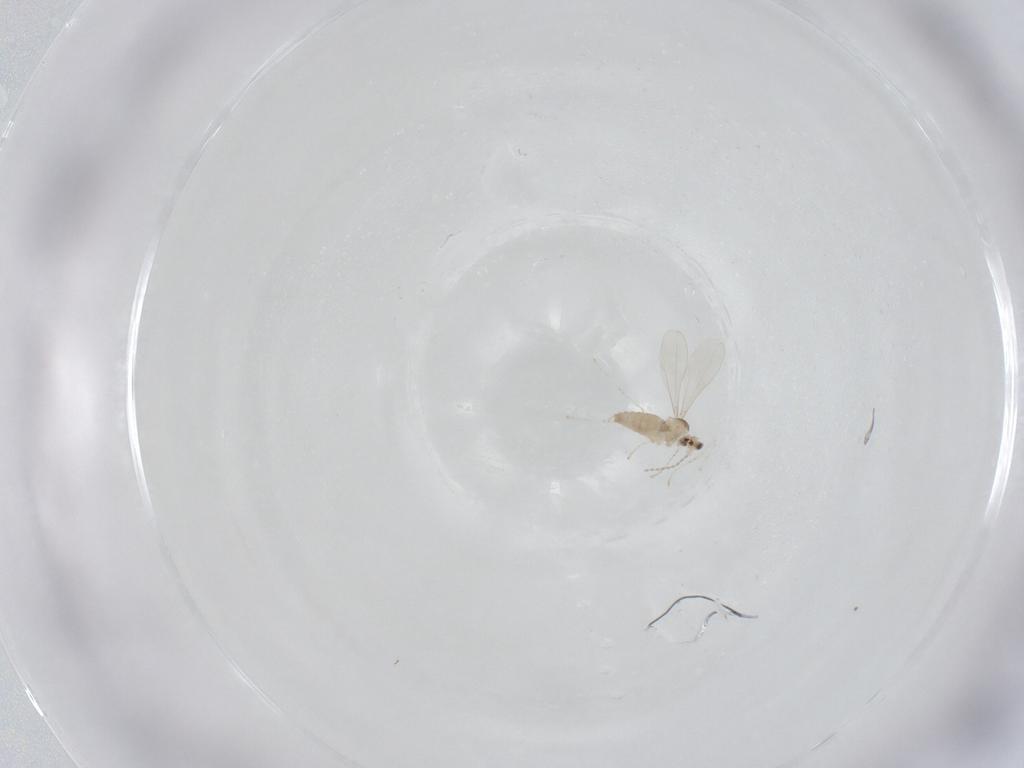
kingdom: Animalia
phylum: Arthropoda
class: Insecta
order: Diptera
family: Cecidomyiidae
